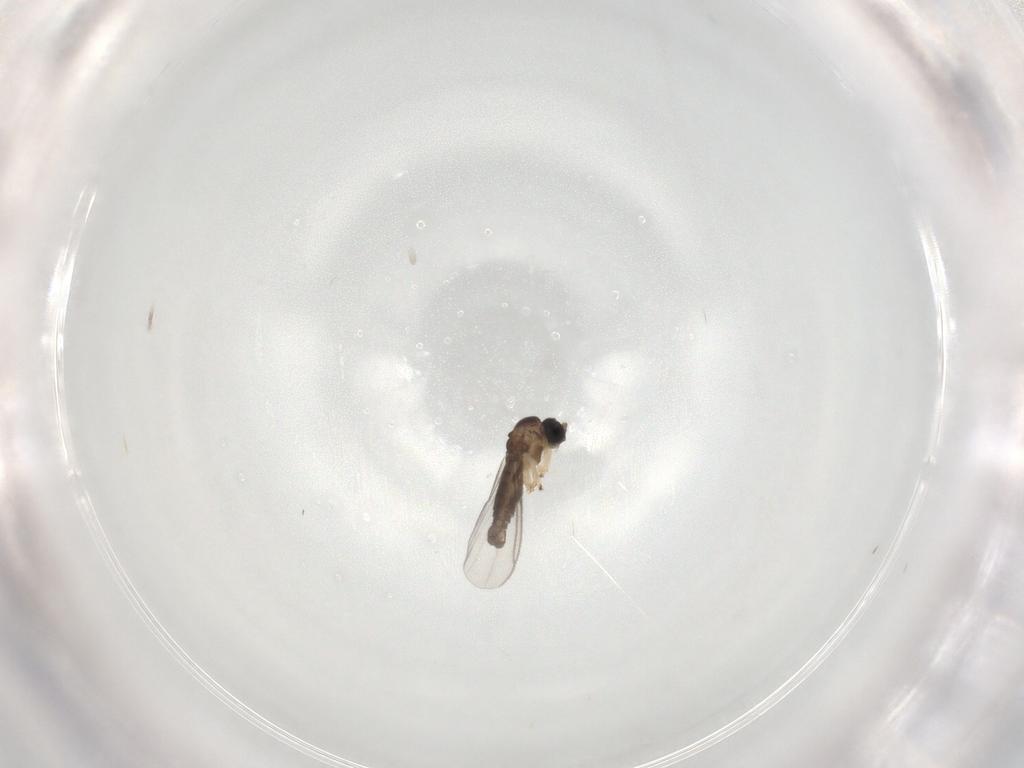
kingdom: Animalia
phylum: Arthropoda
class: Insecta
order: Diptera
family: Sciaridae
